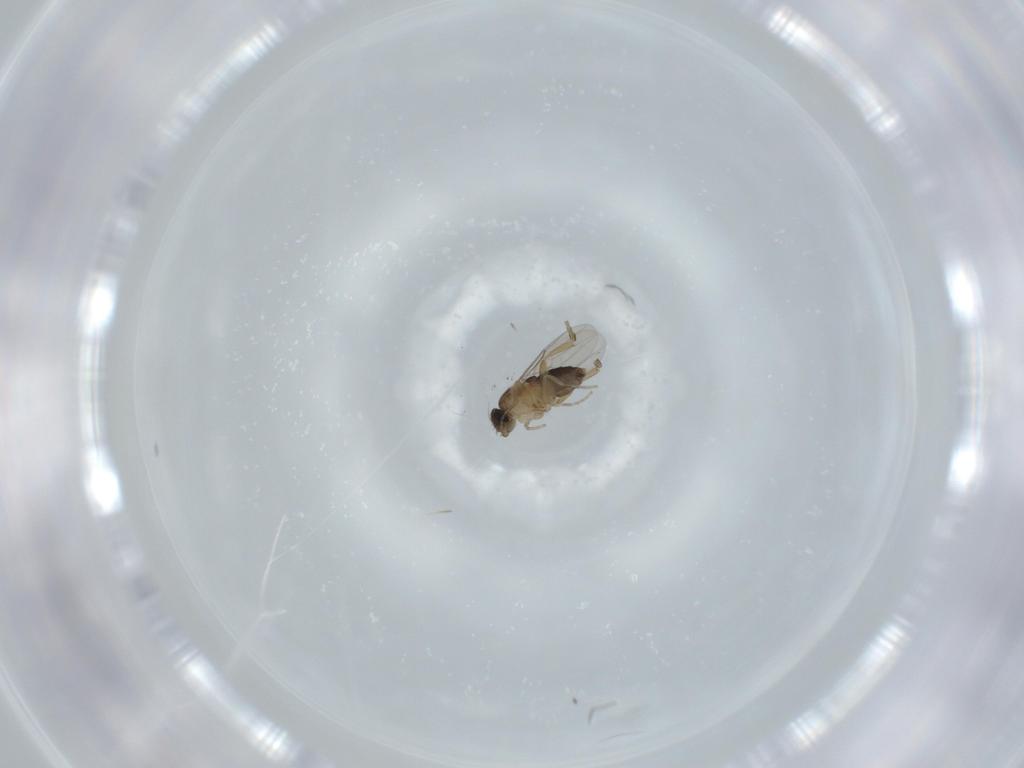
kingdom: Animalia
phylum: Arthropoda
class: Insecta
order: Diptera
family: Phoridae
